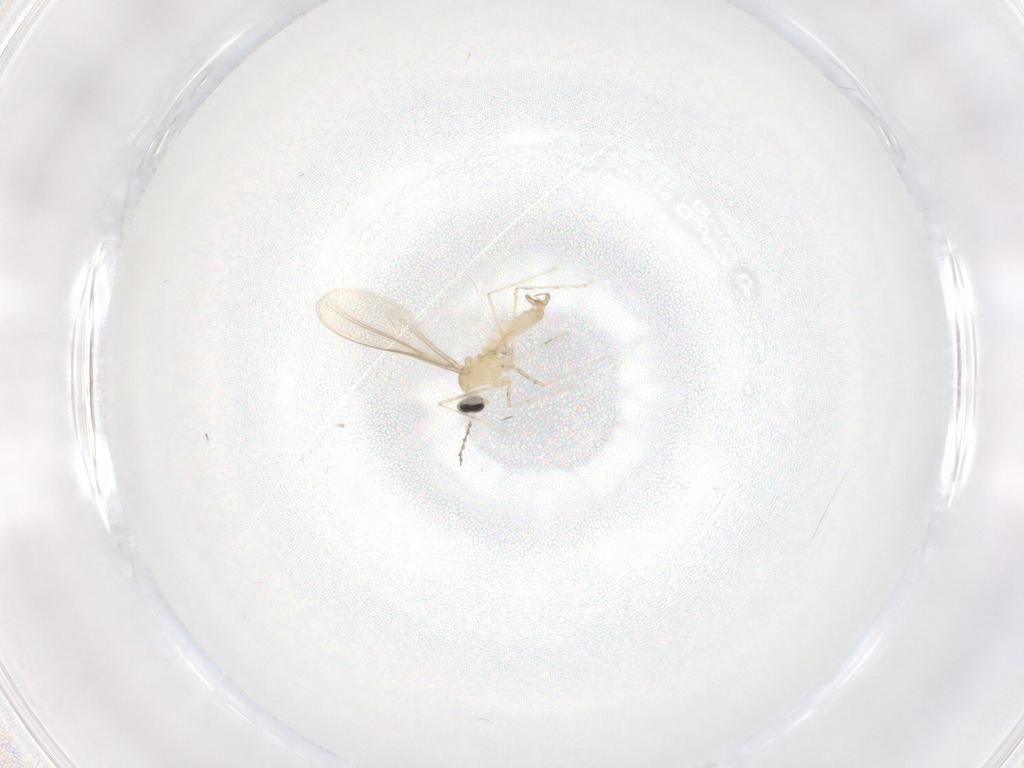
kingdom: Animalia
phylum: Arthropoda
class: Insecta
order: Diptera
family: Cecidomyiidae
